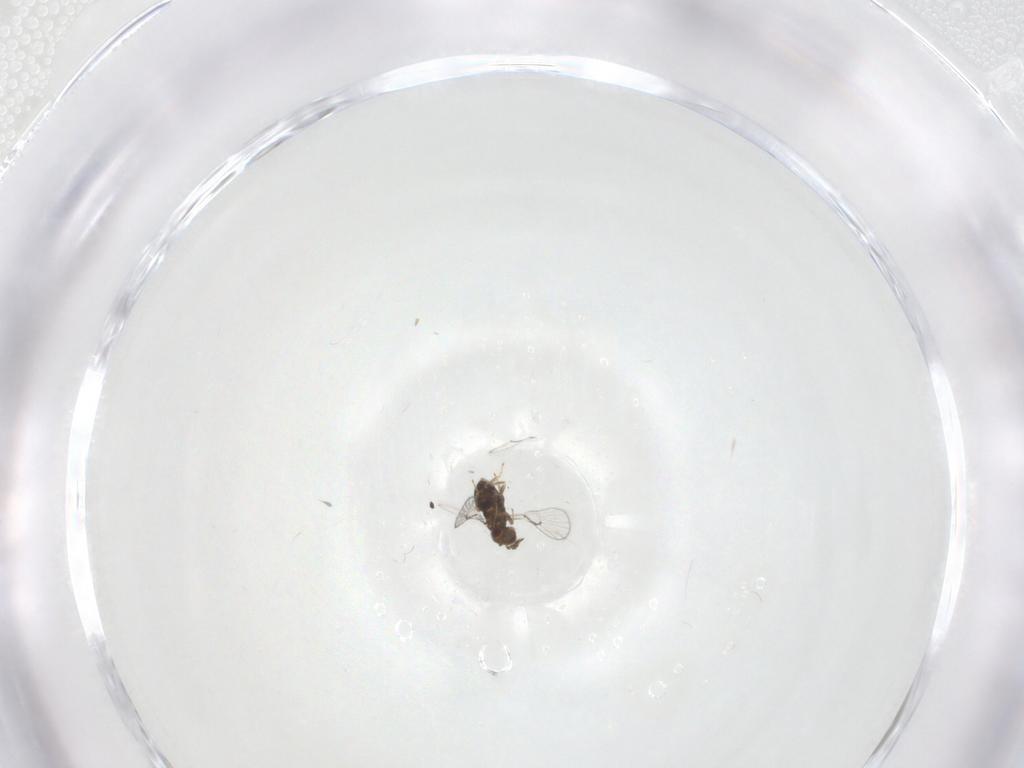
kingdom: Animalia
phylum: Arthropoda
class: Insecta
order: Hymenoptera
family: Trichogrammatidae
